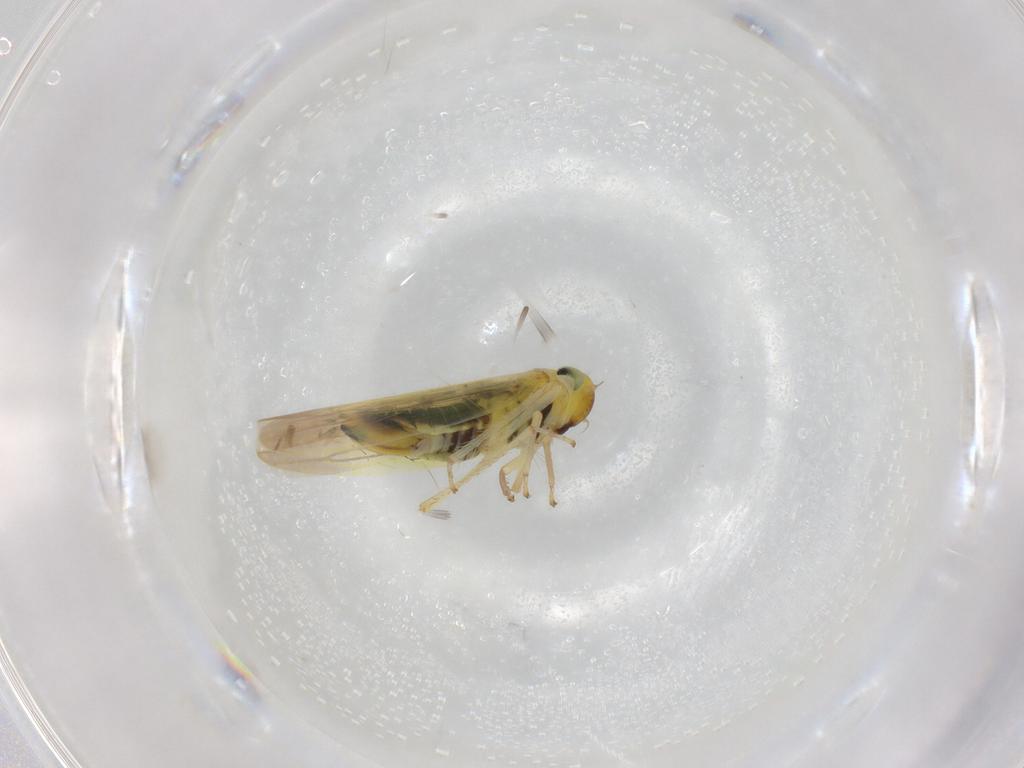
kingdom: Animalia
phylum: Arthropoda
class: Insecta
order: Hemiptera
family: Cicadellidae
